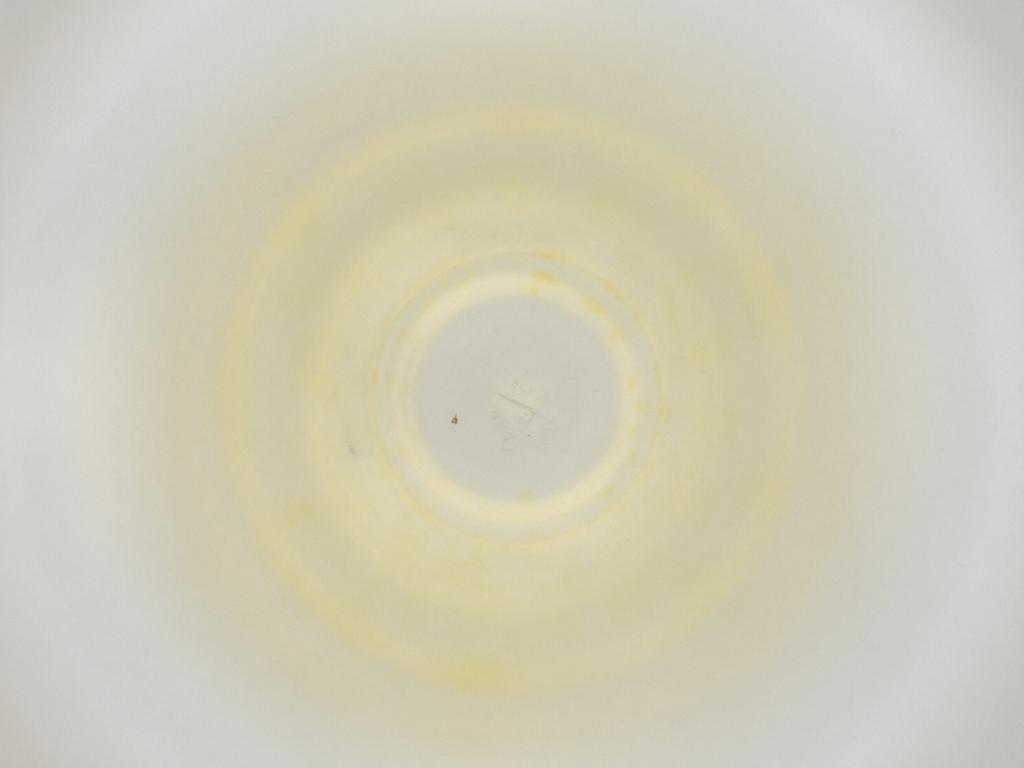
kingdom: Animalia
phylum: Arthropoda
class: Insecta
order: Diptera
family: Cecidomyiidae
